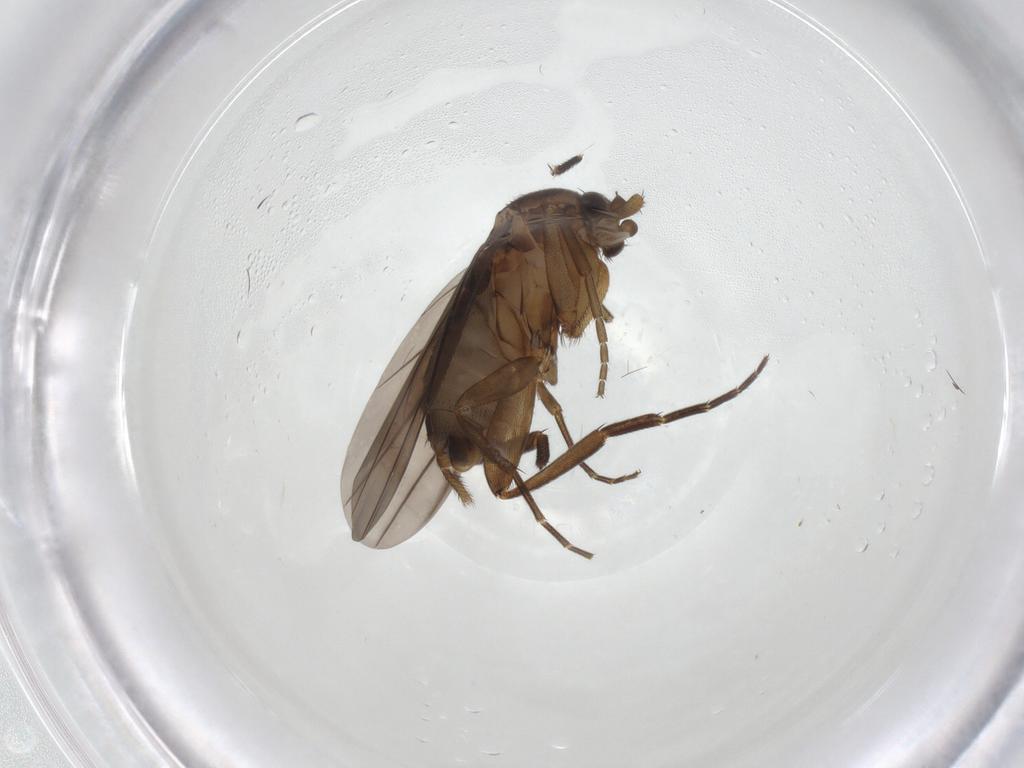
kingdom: Animalia
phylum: Arthropoda
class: Insecta
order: Diptera
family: Phoridae
